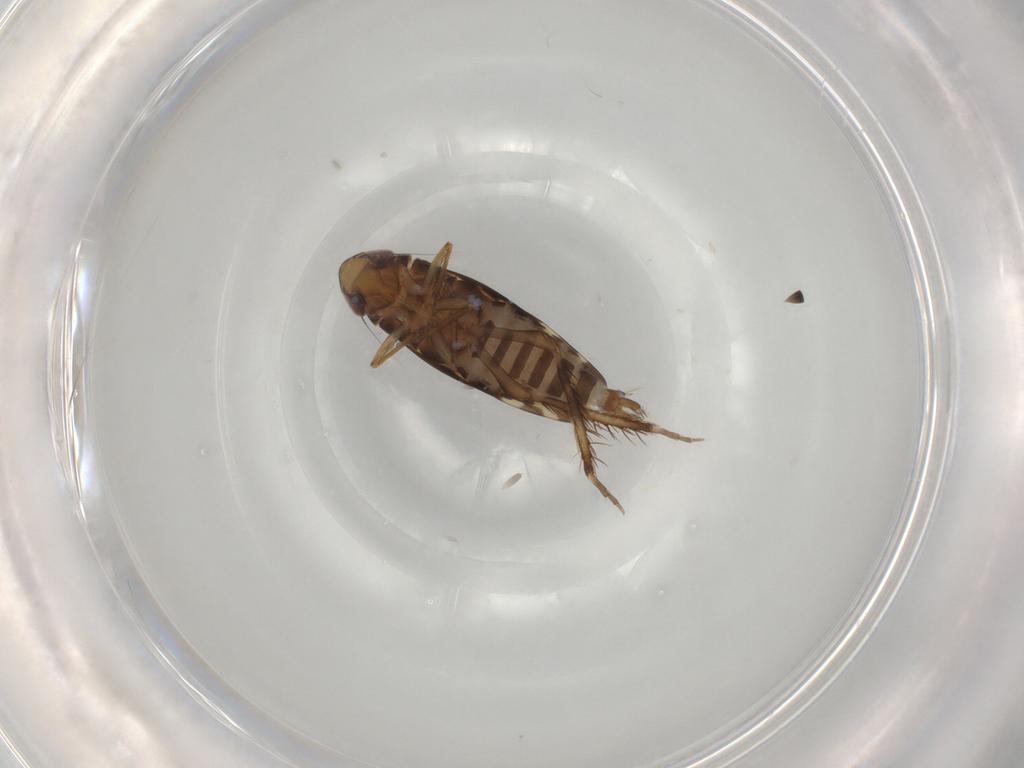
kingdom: Animalia
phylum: Arthropoda
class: Insecta
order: Hemiptera
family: Cicadellidae
